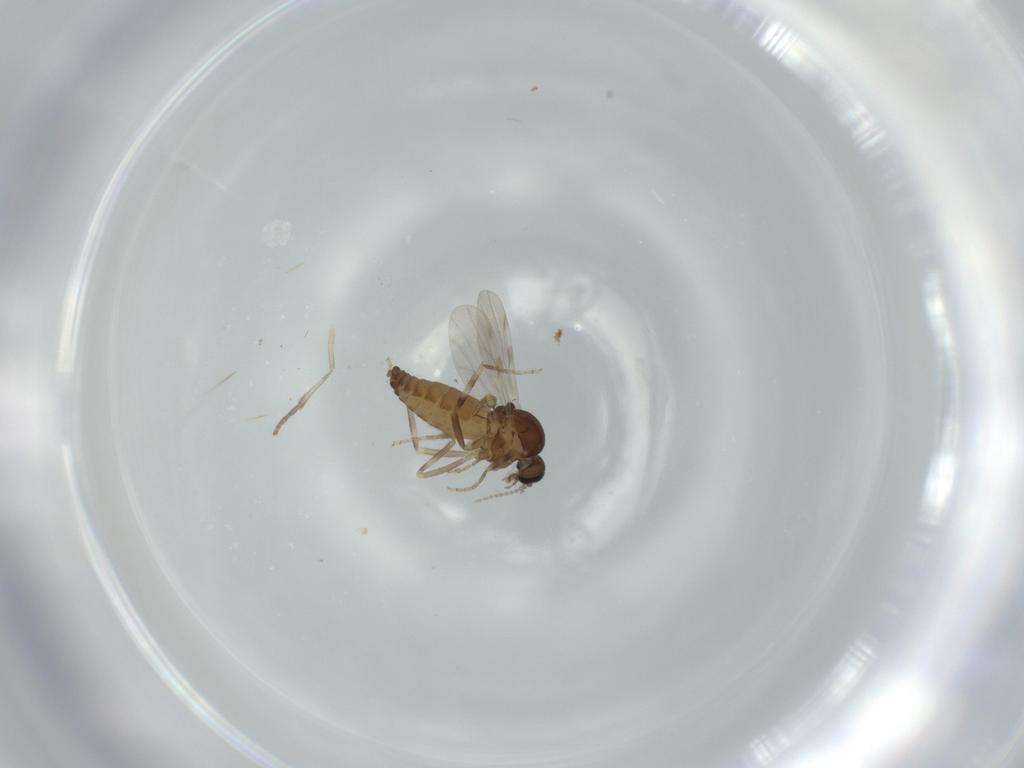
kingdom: Animalia
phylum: Arthropoda
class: Insecta
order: Diptera
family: Ceratopogonidae
